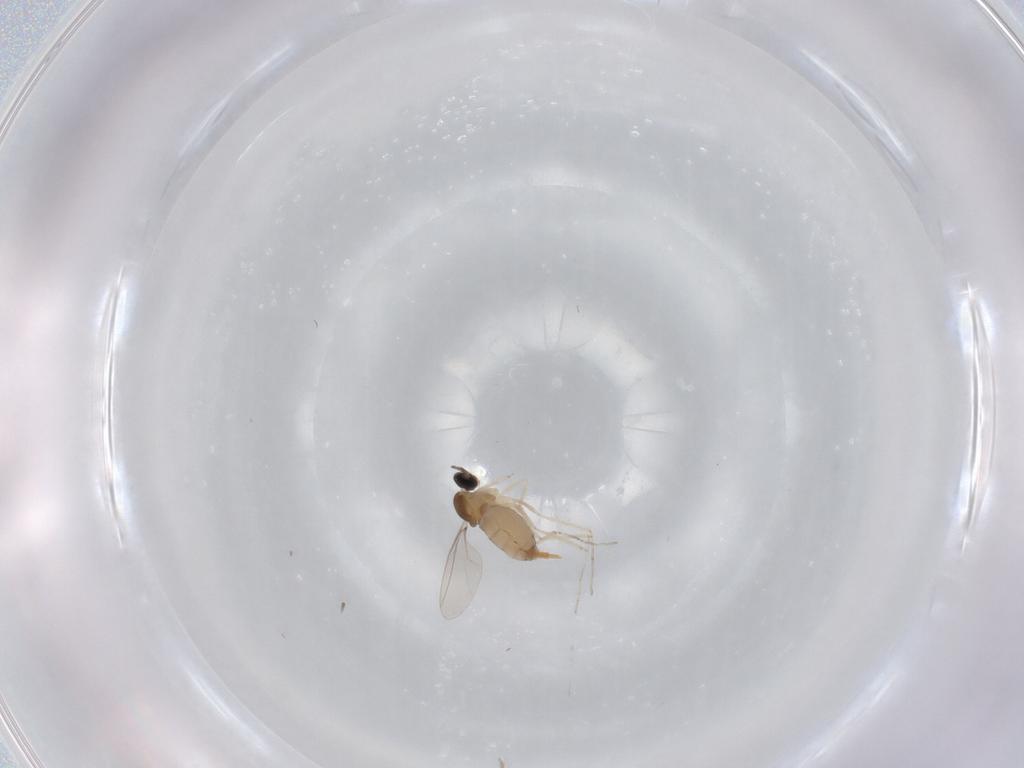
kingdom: Animalia
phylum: Arthropoda
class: Insecta
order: Diptera
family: Cecidomyiidae
